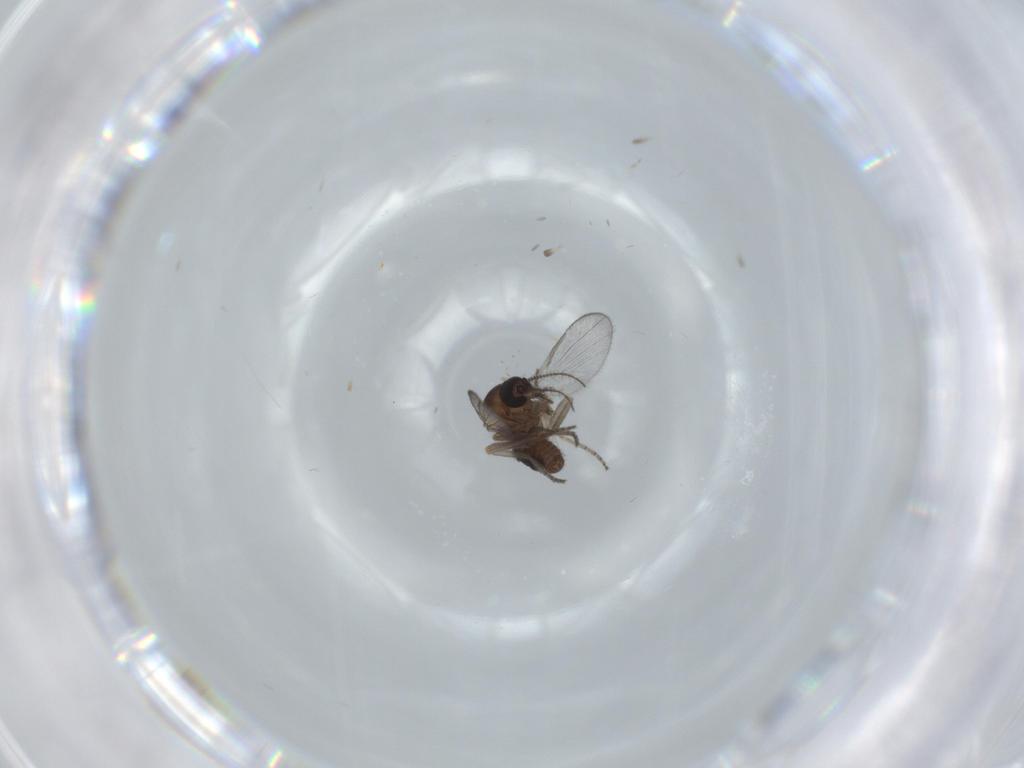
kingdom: Animalia
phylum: Arthropoda
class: Insecta
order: Diptera
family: Ceratopogonidae
